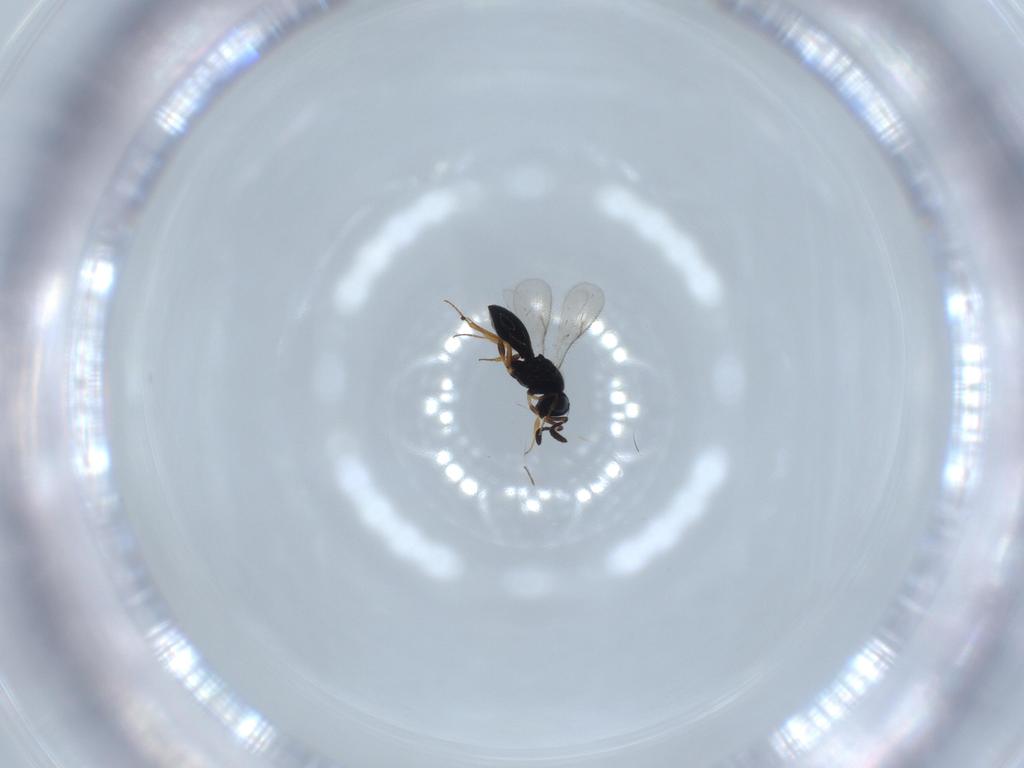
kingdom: Animalia
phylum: Arthropoda
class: Insecta
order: Hymenoptera
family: Scelionidae
